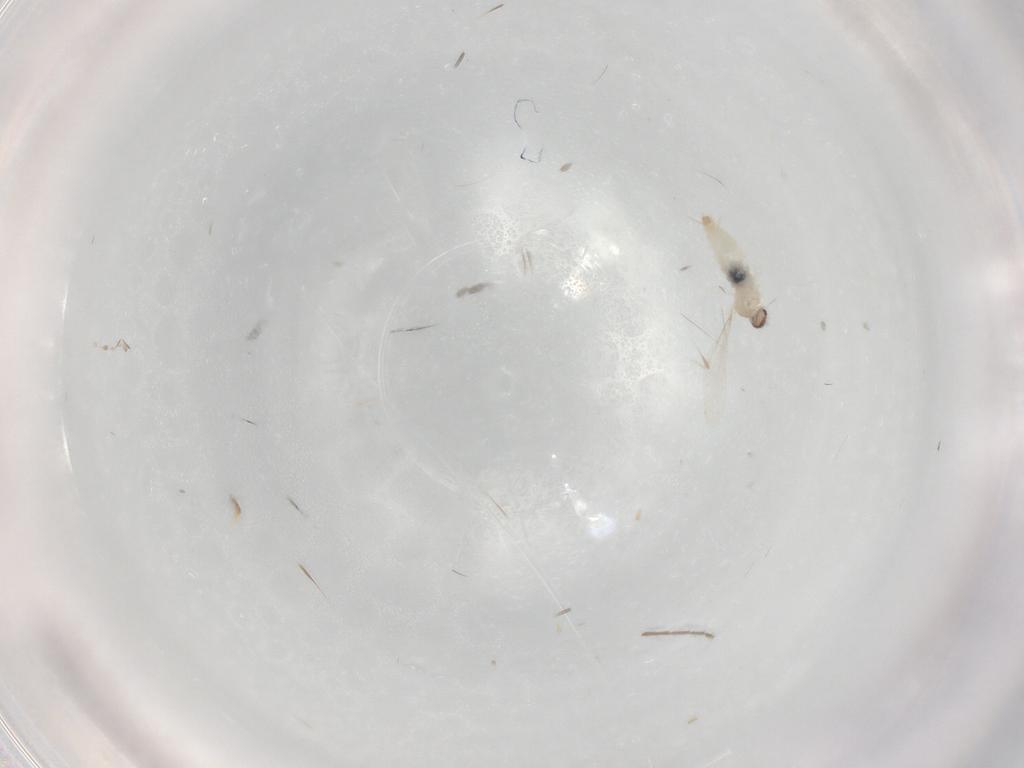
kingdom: Animalia
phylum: Arthropoda
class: Insecta
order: Diptera
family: Cecidomyiidae
